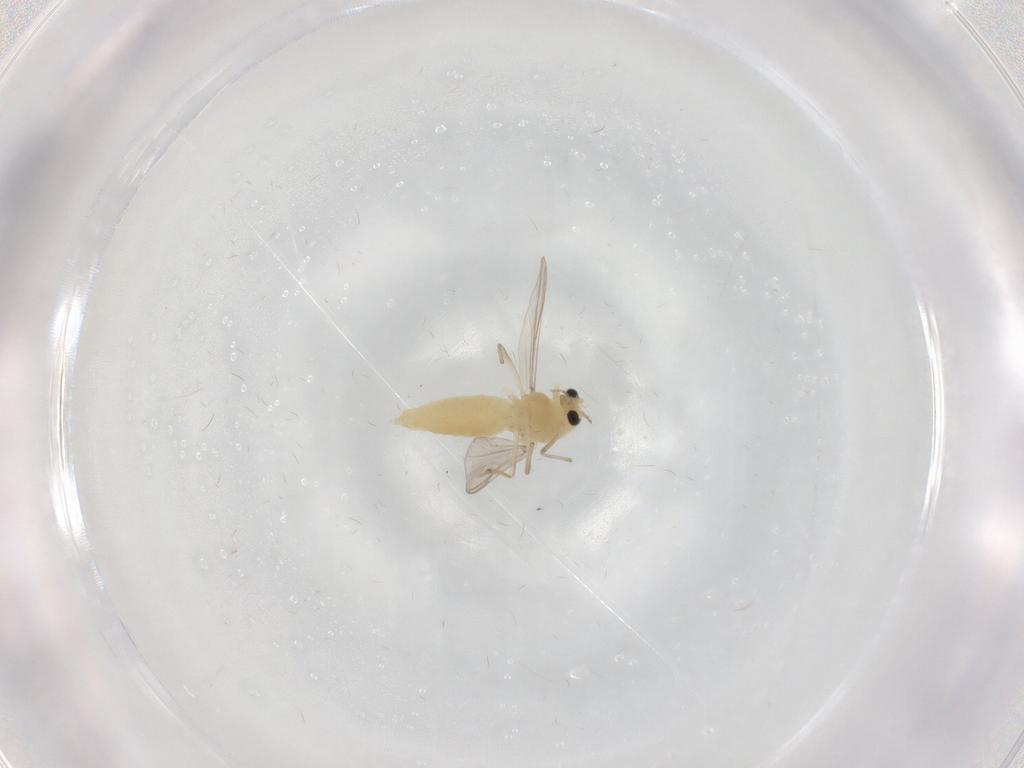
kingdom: Animalia
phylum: Arthropoda
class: Insecta
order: Diptera
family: Chironomidae
